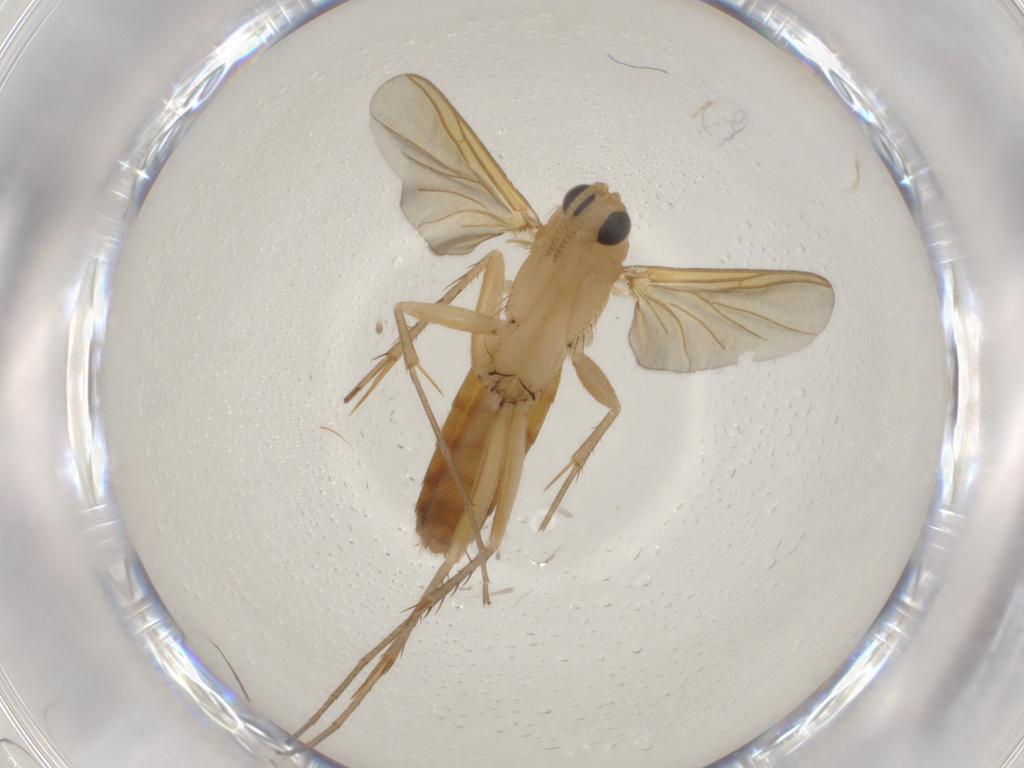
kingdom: Animalia
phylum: Arthropoda
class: Insecta
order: Diptera
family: Mycetophilidae
